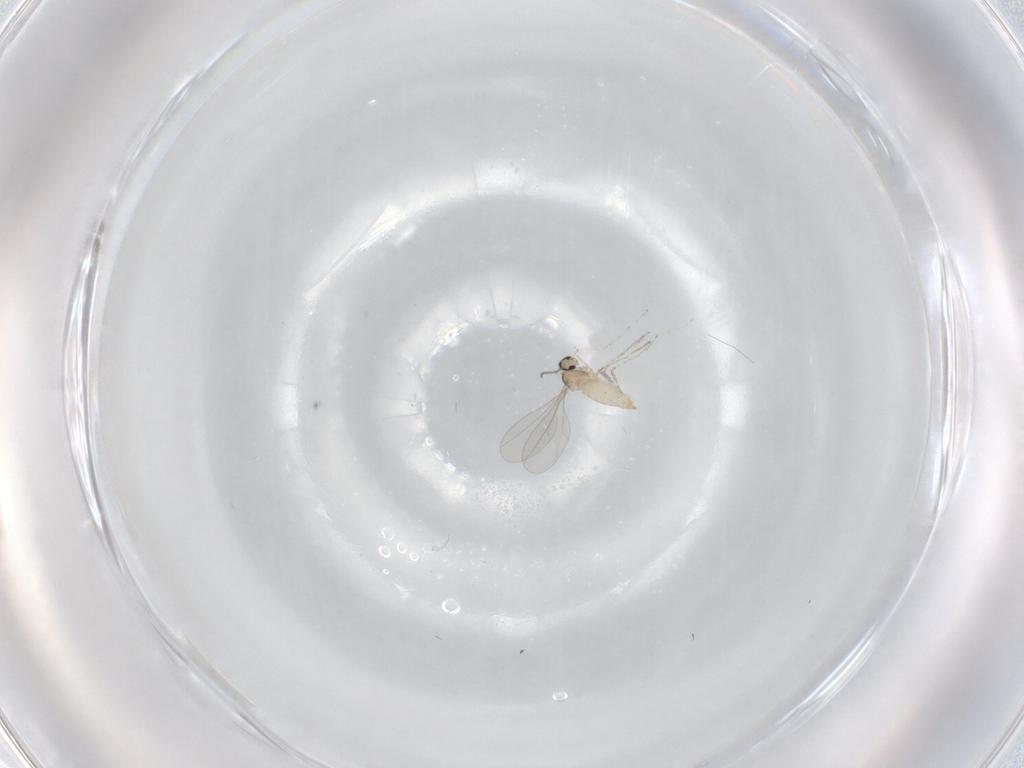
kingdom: Animalia
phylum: Arthropoda
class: Insecta
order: Diptera
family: Cecidomyiidae
